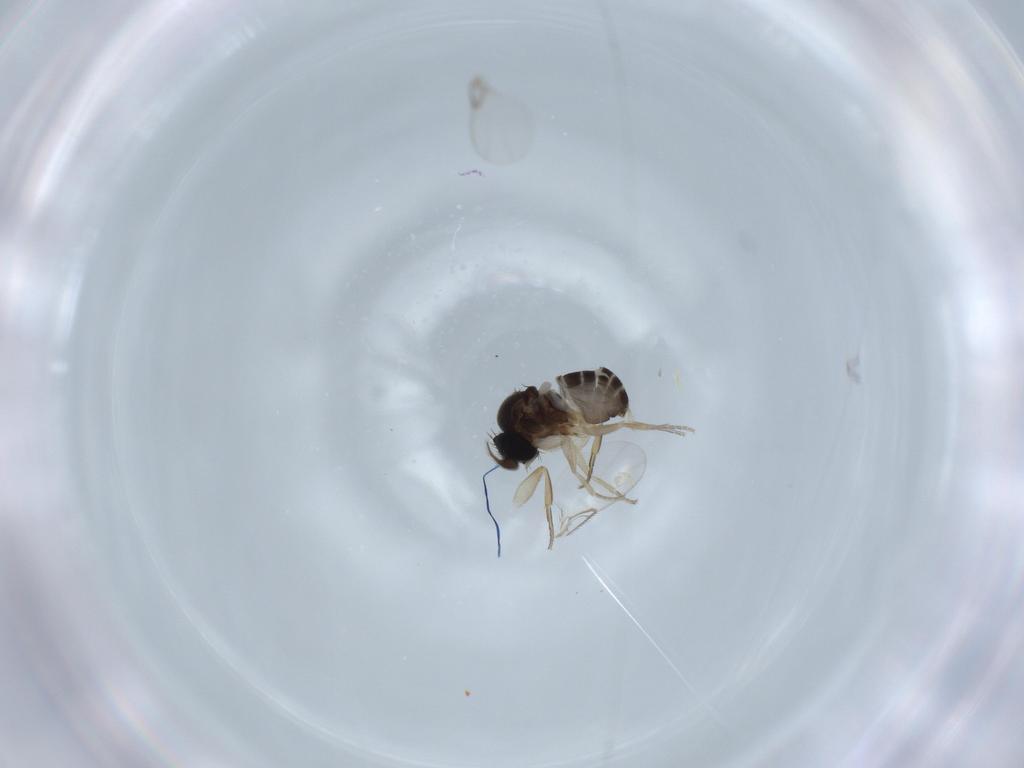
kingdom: Animalia
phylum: Arthropoda
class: Insecta
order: Diptera
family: Phoridae
